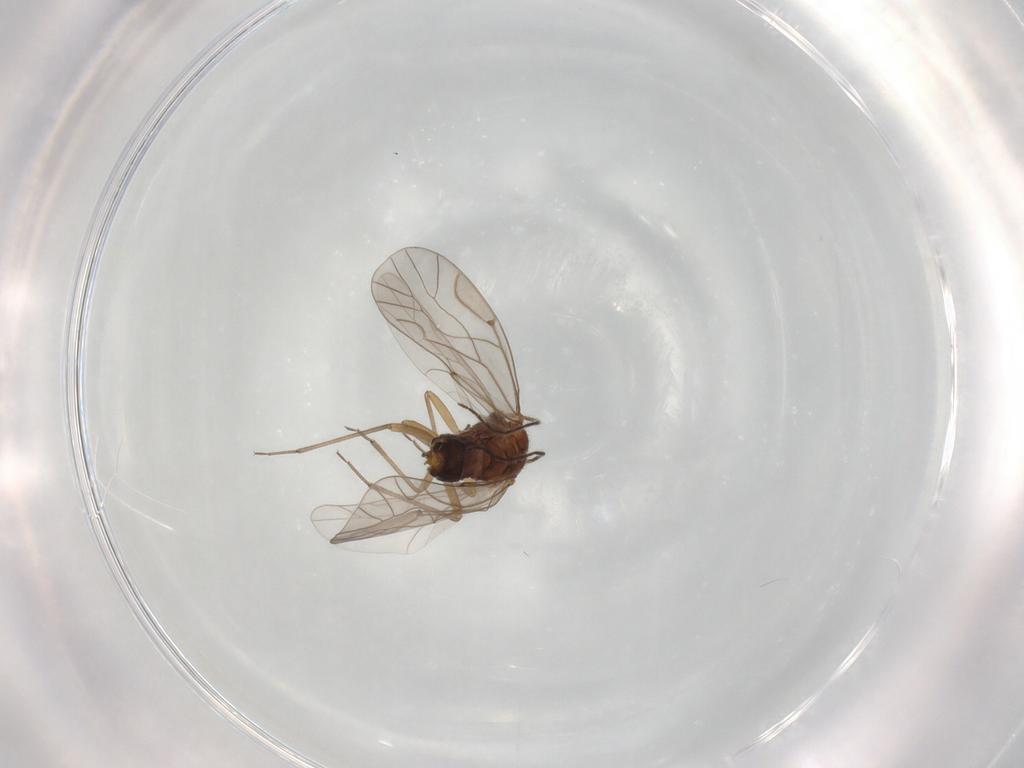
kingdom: Animalia
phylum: Arthropoda
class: Insecta
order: Psocodea
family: Lachesillidae
